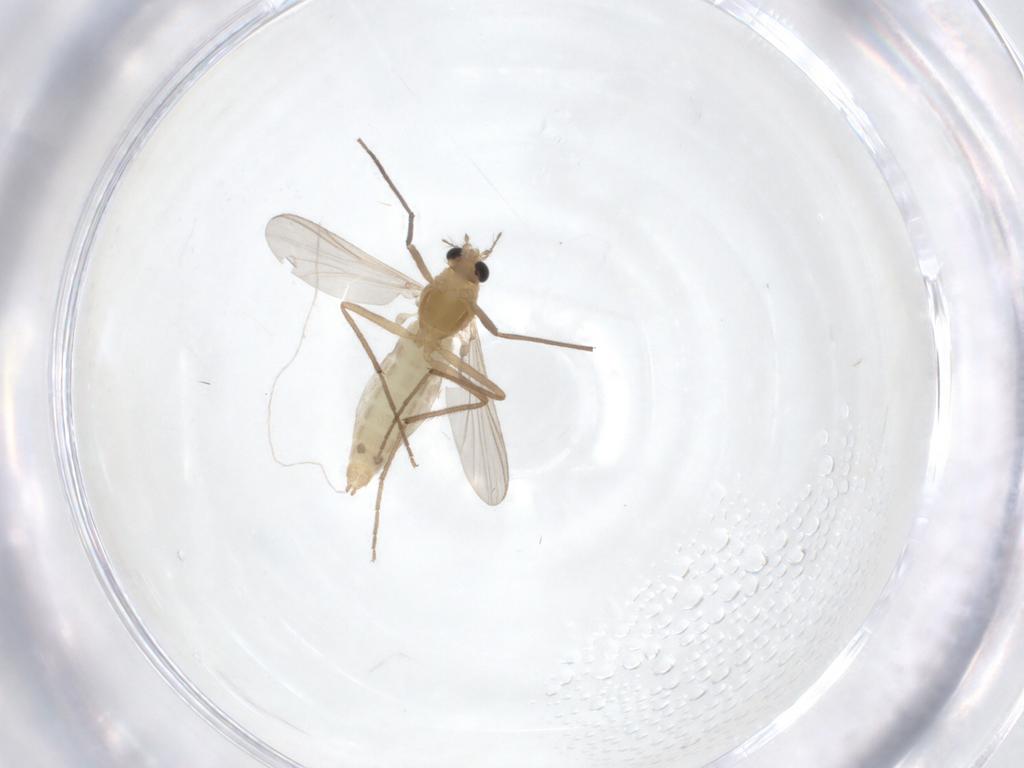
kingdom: Animalia
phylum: Arthropoda
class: Insecta
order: Diptera
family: Chironomidae
